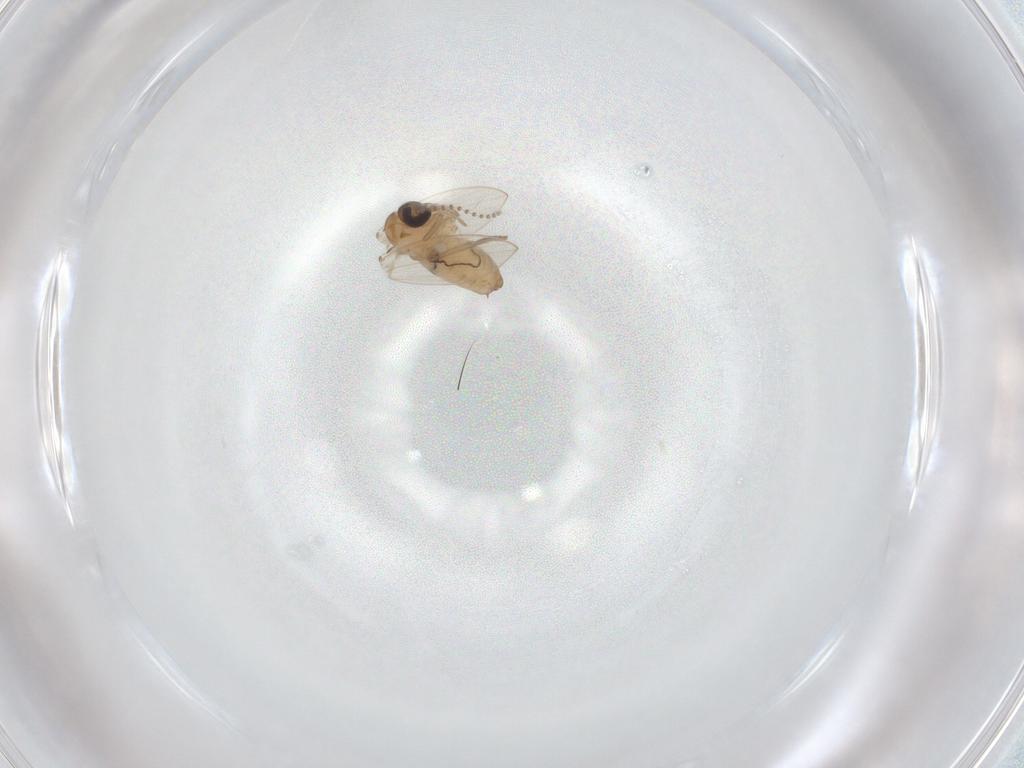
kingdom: Animalia
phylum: Arthropoda
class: Insecta
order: Diptera
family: Psychodidae
